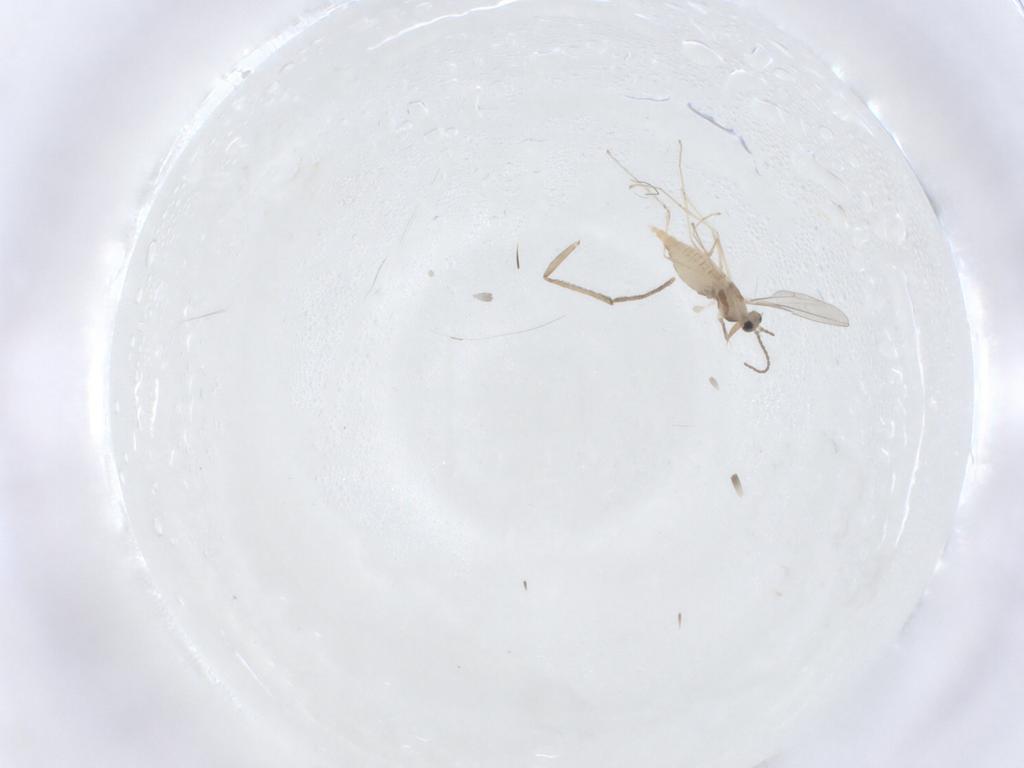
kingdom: Animalia
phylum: Arthropoda
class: Insecta
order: Diptera
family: Cecidomyiidae
